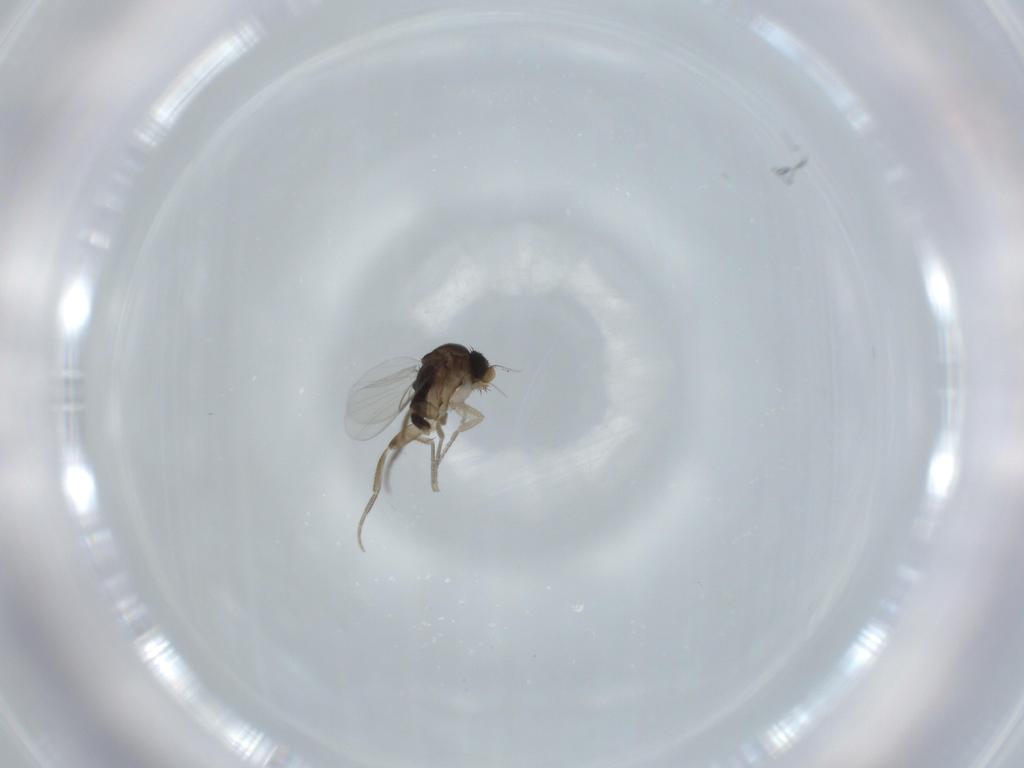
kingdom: Animalia
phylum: Arthropoda
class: Insecta
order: Diptera
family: Phoridae
